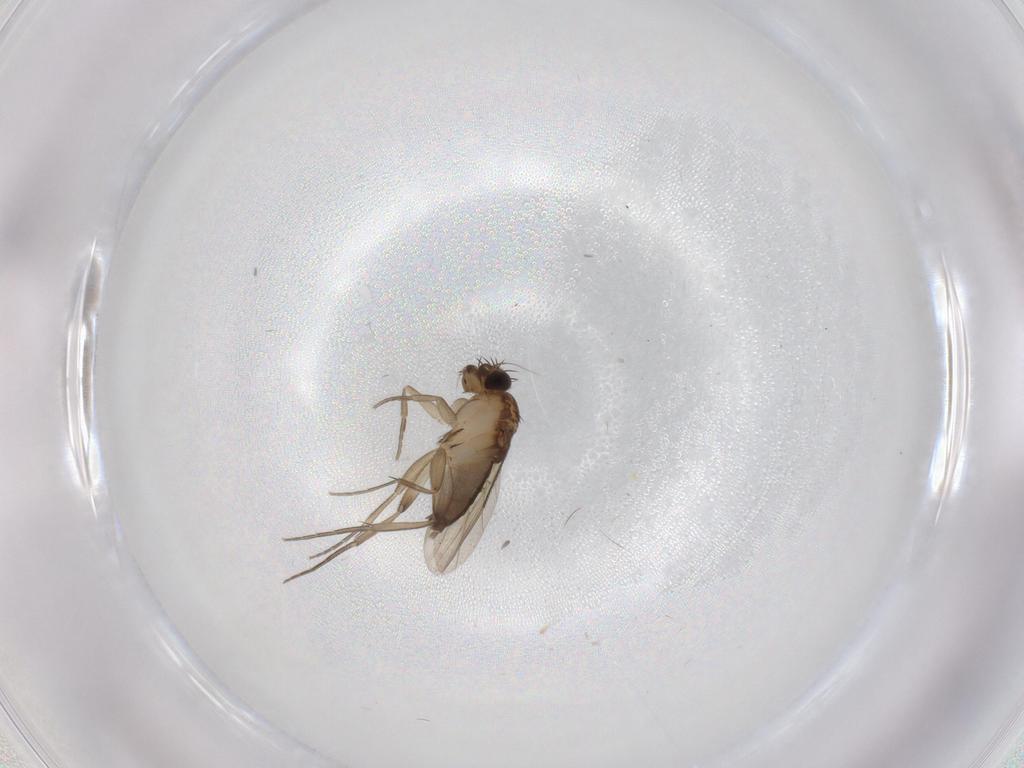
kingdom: Animalia
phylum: Arthropoda
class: Insecta
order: Diptera
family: Phoridae
